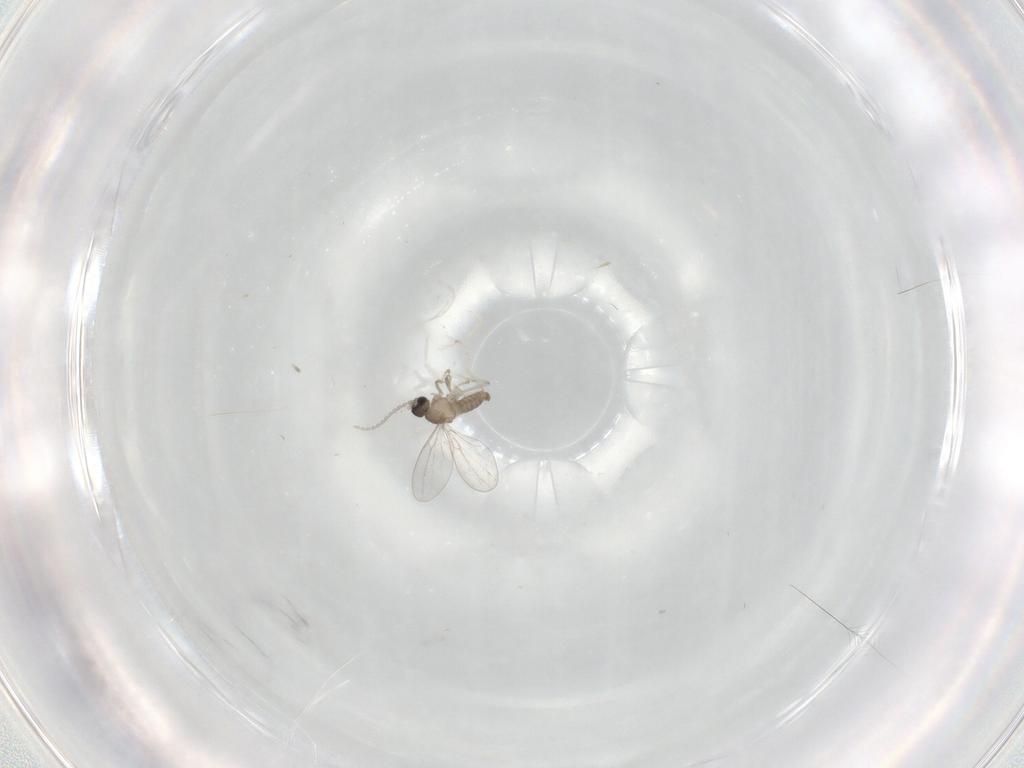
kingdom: Animalia
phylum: Arthropoda
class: Insecta
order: Diptera
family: Cecidomyiidae
